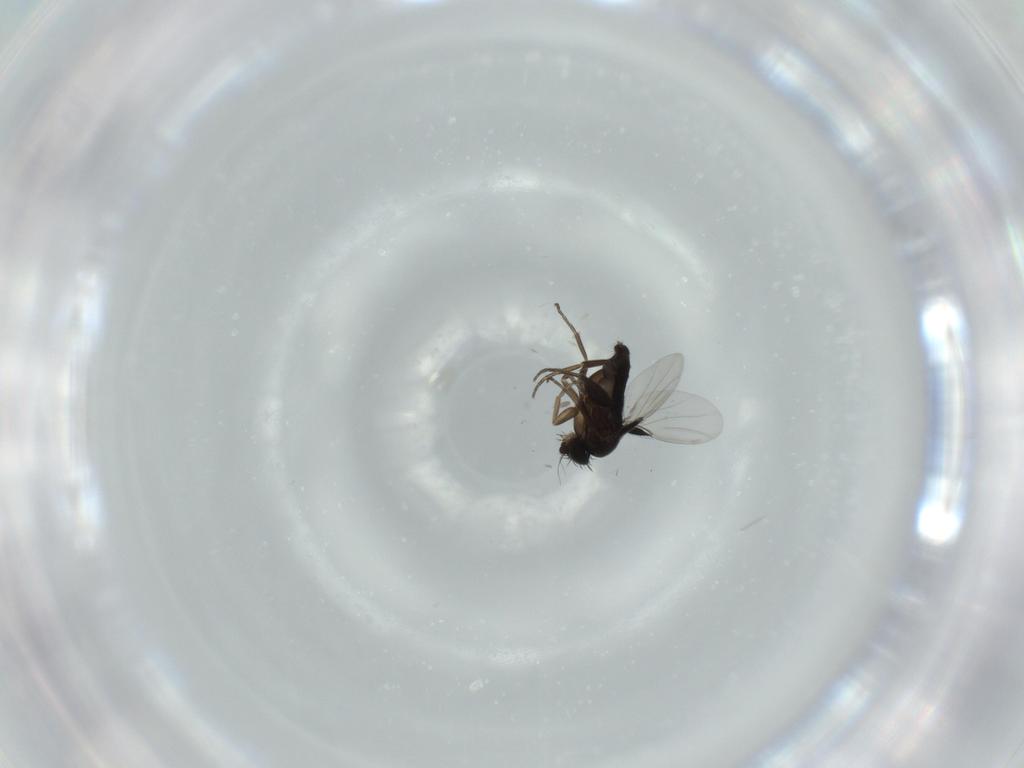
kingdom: Animalia
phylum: Arthropoda
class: Insecta
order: Diptera
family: Phoridae
